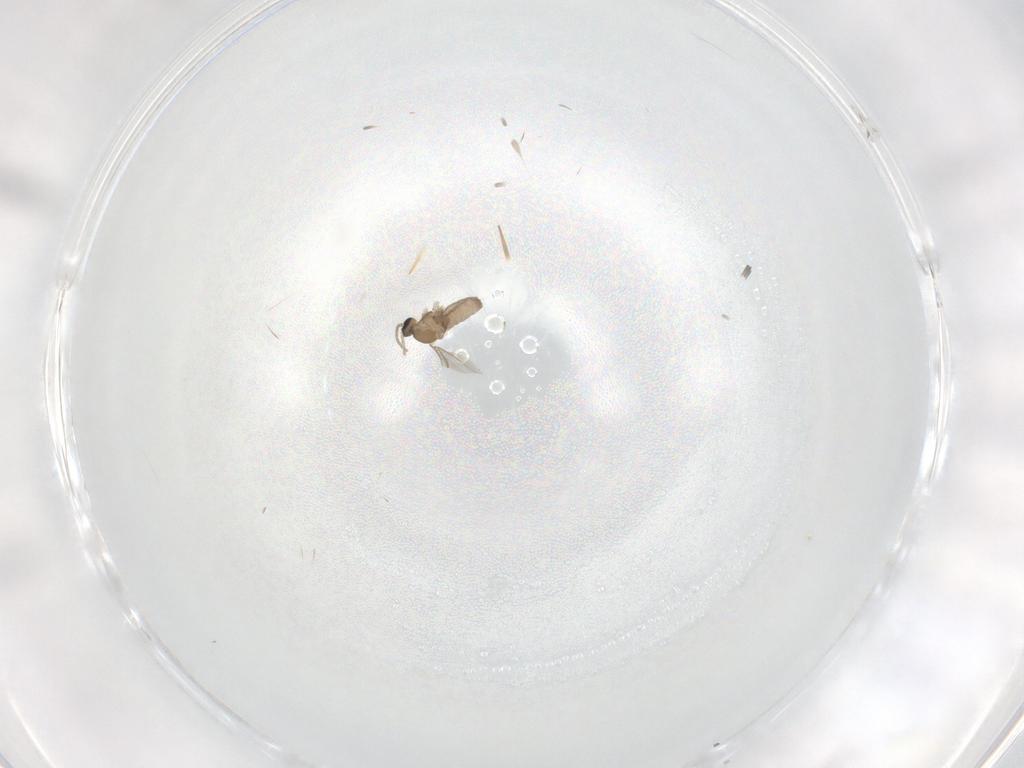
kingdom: Animalia
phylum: Arthropoda
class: Insecta
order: Diptera
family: Cecidomyiidae
